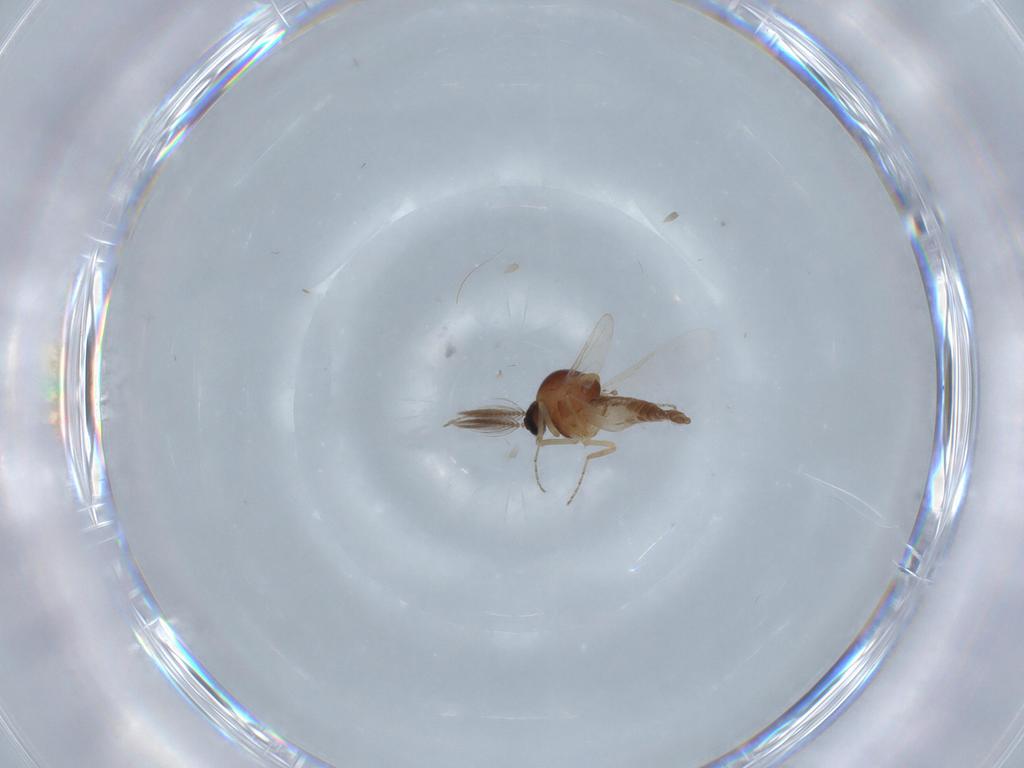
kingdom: Animalia
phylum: Arthropoda
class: Insecta
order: Diptera
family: Ceratopogonidae
